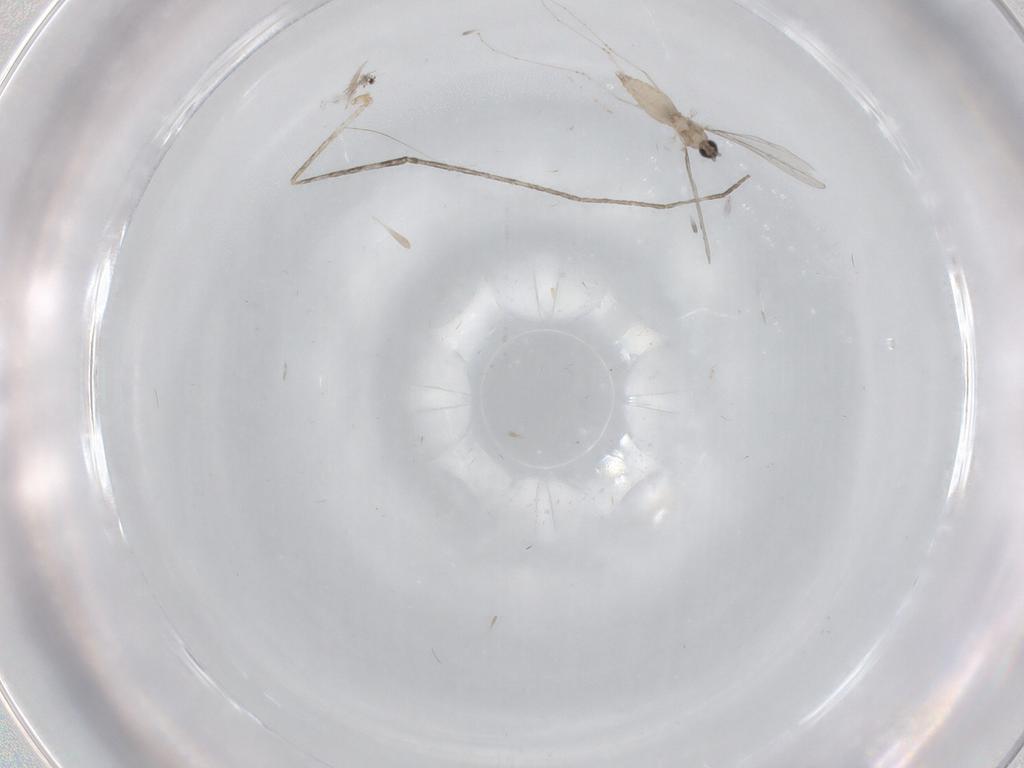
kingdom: Animalia
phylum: Arthropoda
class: Insecta
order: Diptera
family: Cecidomyiidae
